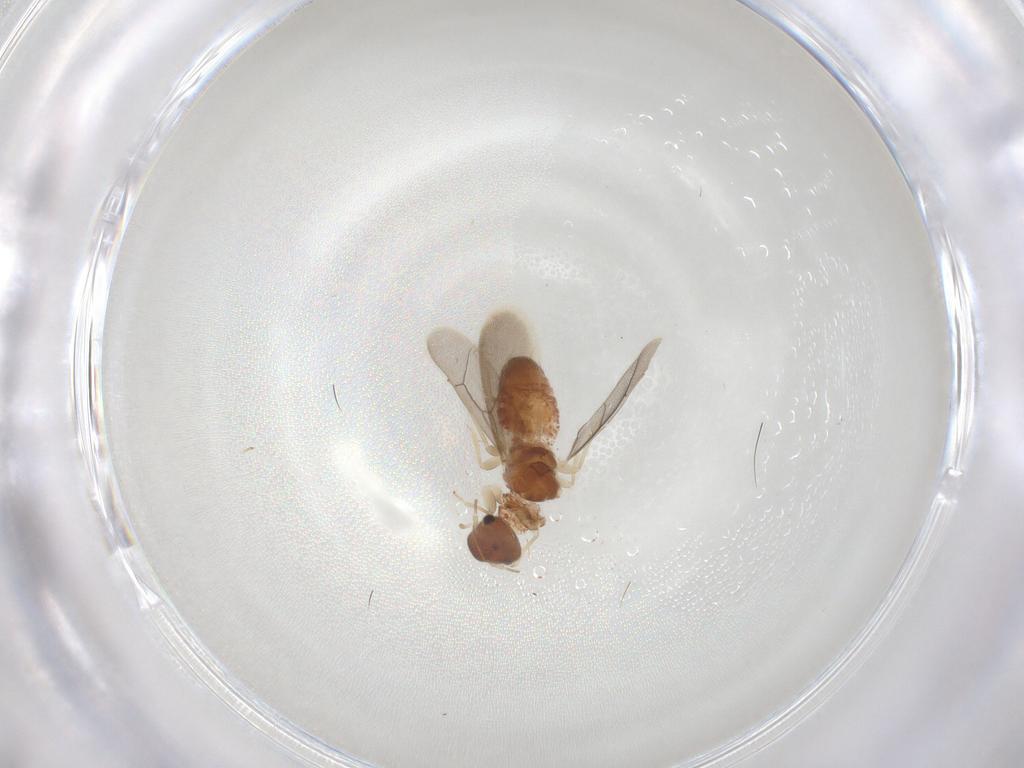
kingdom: Animalia
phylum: Arthropoda
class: Insecta
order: Psocodea
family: Archipsocidae
